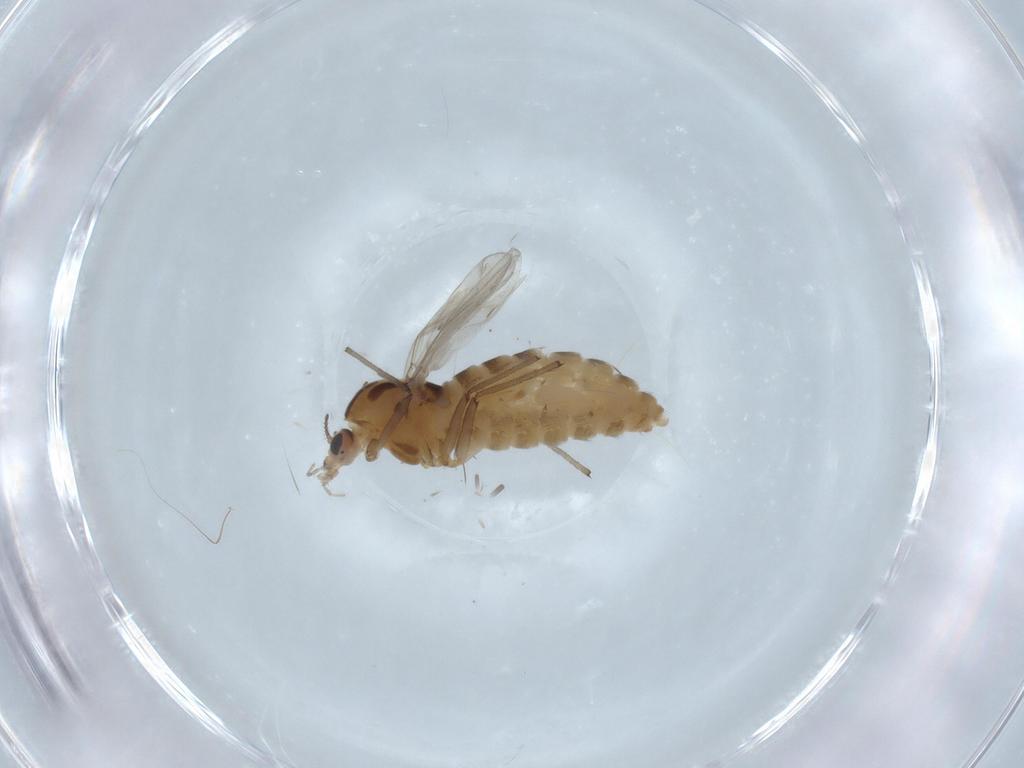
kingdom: Animalia
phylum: Arthropoda
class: Insecta
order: Diptera
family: Chironomidae
